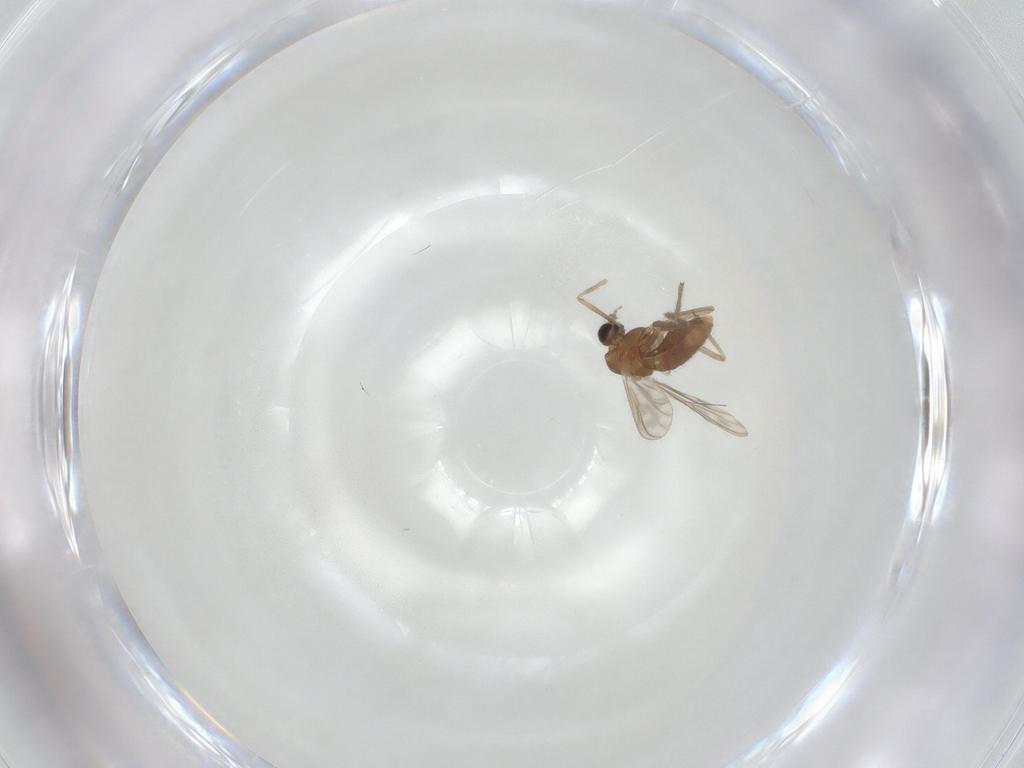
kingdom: Animalia
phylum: Arthropoda
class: Insecta
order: Diptera
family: Chironomidae
